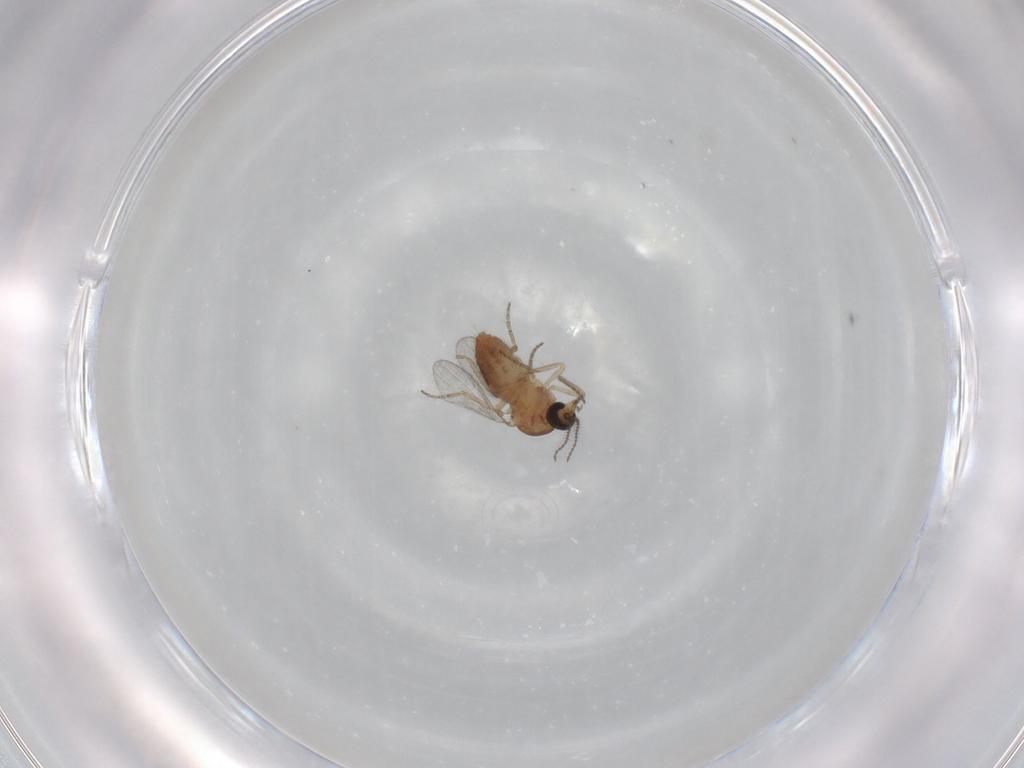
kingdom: Animalia
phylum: Arthropoda
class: Insecta
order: Diptera
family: Ceratopogonidae
